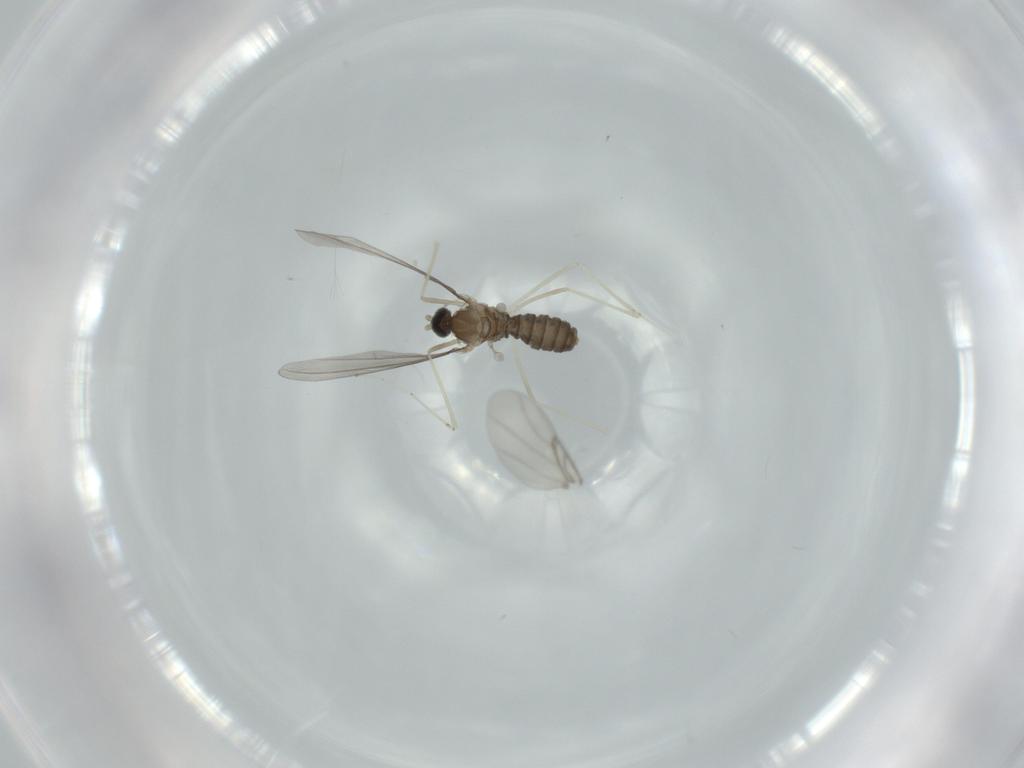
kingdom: Animalia
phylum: Arthropoda
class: Insecta
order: Diptera
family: Cecidomyiidae
